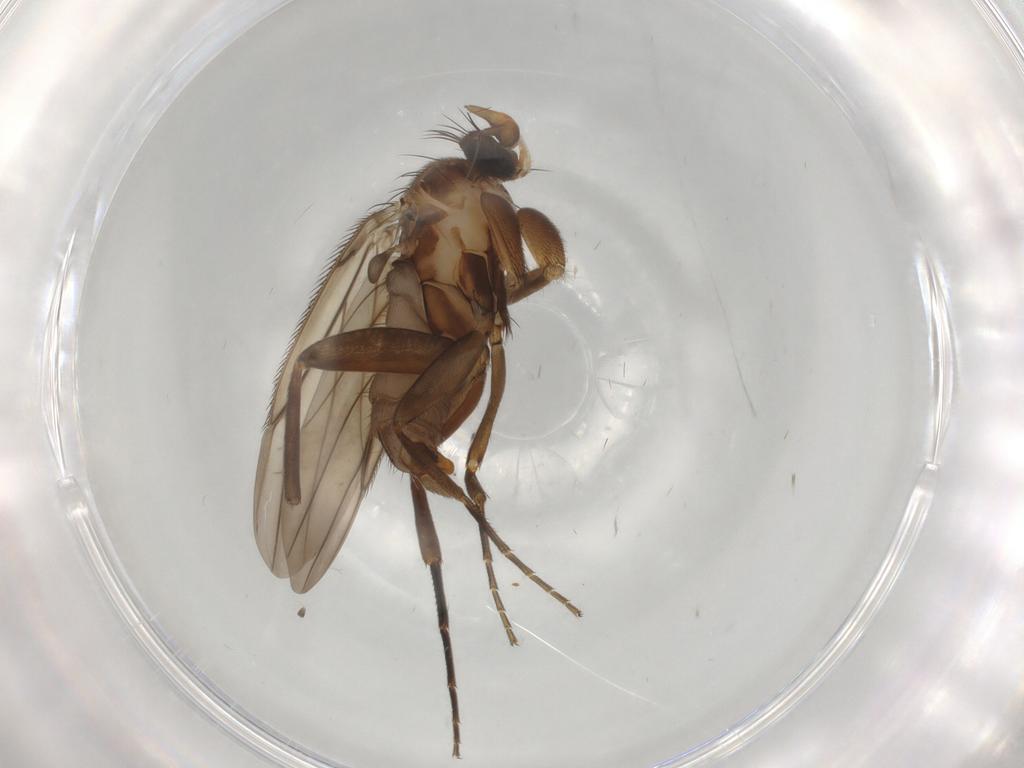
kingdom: Animalia
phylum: Arthropoda
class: Insecta
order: Diptera
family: Phoridae
